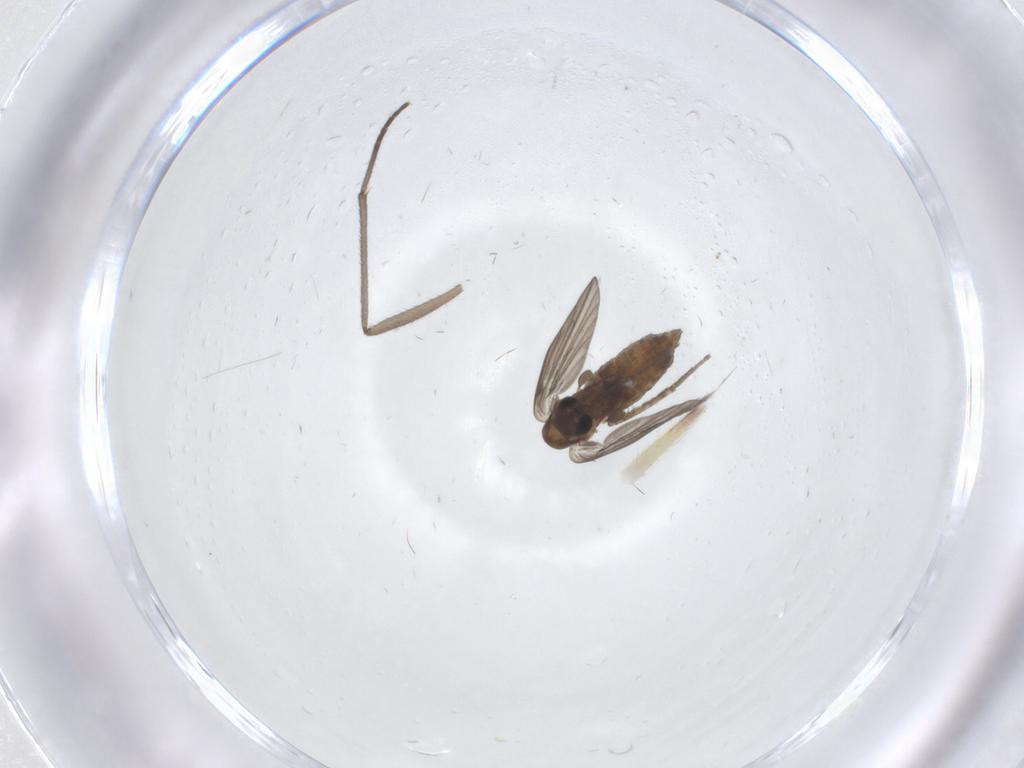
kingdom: Animalia
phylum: Arthropoda
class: Insecta
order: Diptera
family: Sciaridae
